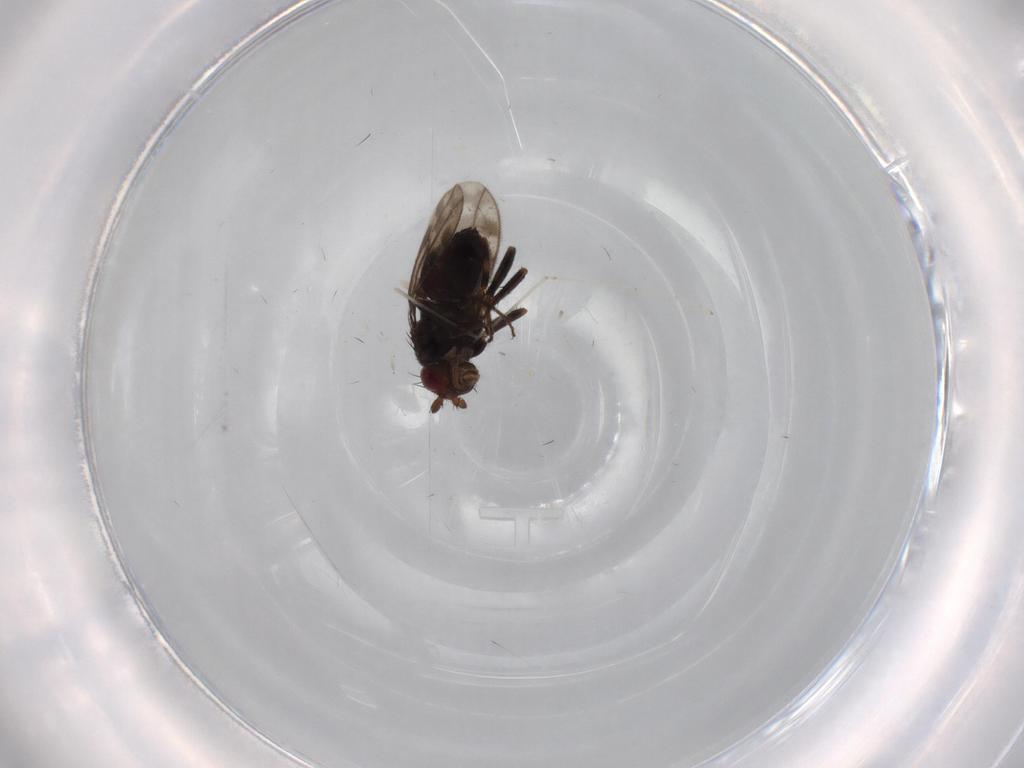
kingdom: Animalia
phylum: Arthropoda
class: Insecta
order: Diptera
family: Sphaeroceridae
